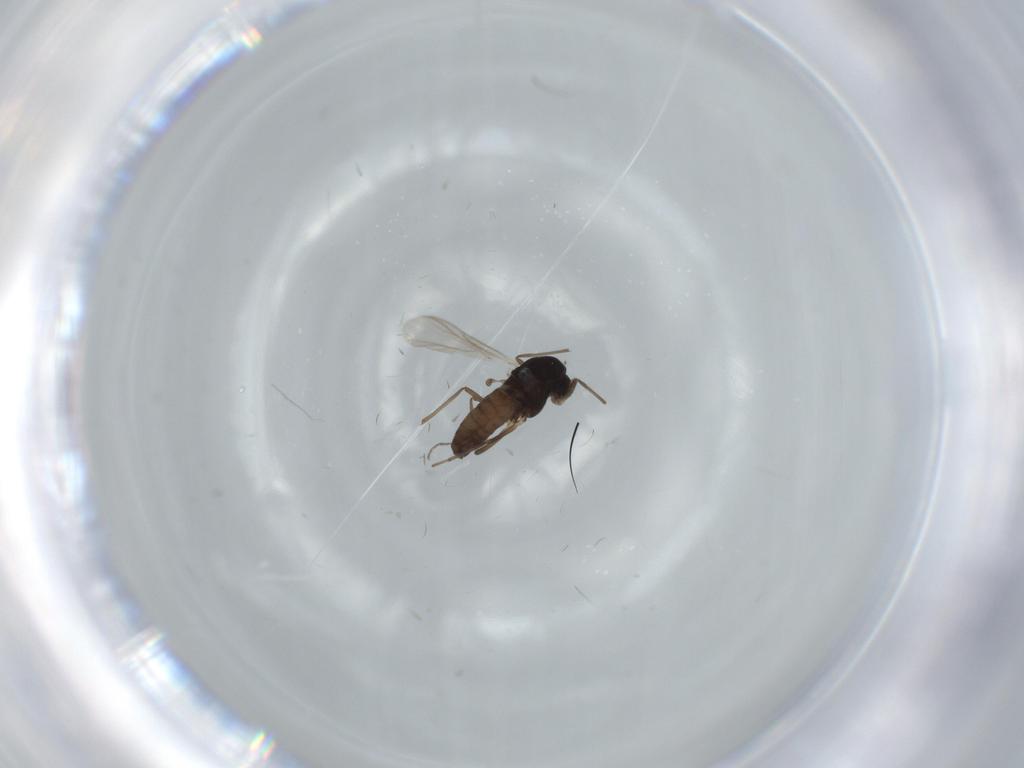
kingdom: Animalia
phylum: Arthropoda
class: Insecta
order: Diptera
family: Chironomidae
